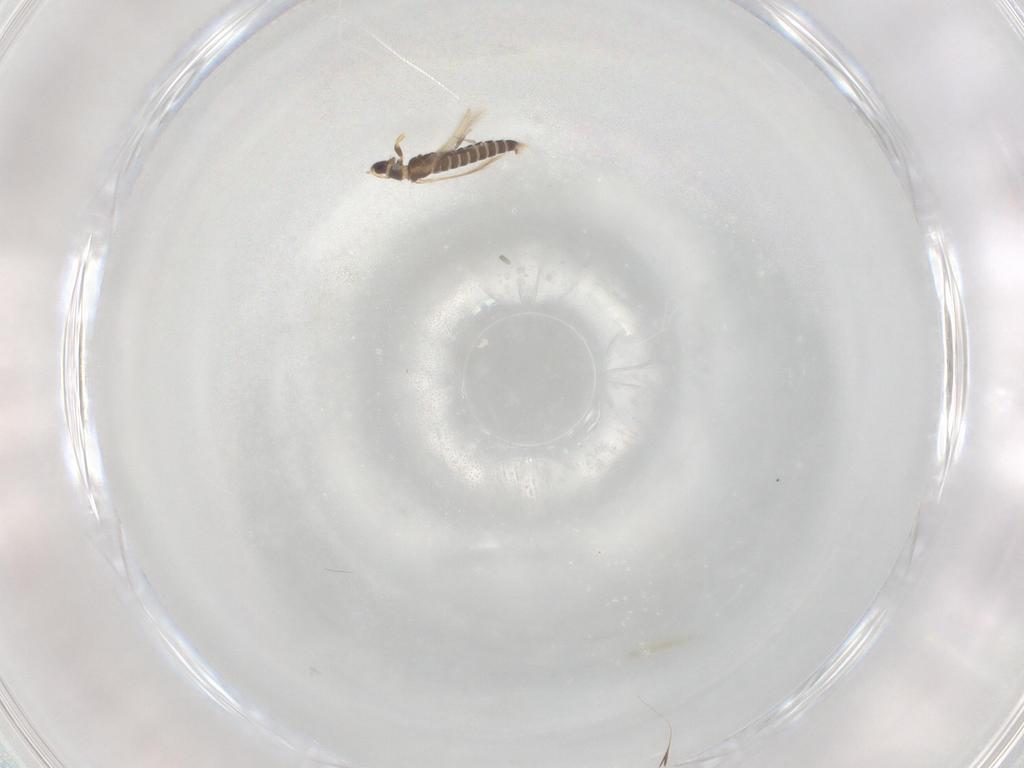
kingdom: Animalia
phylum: Arthropoda
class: Insecta
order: Thysanoptera
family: Thripidae
